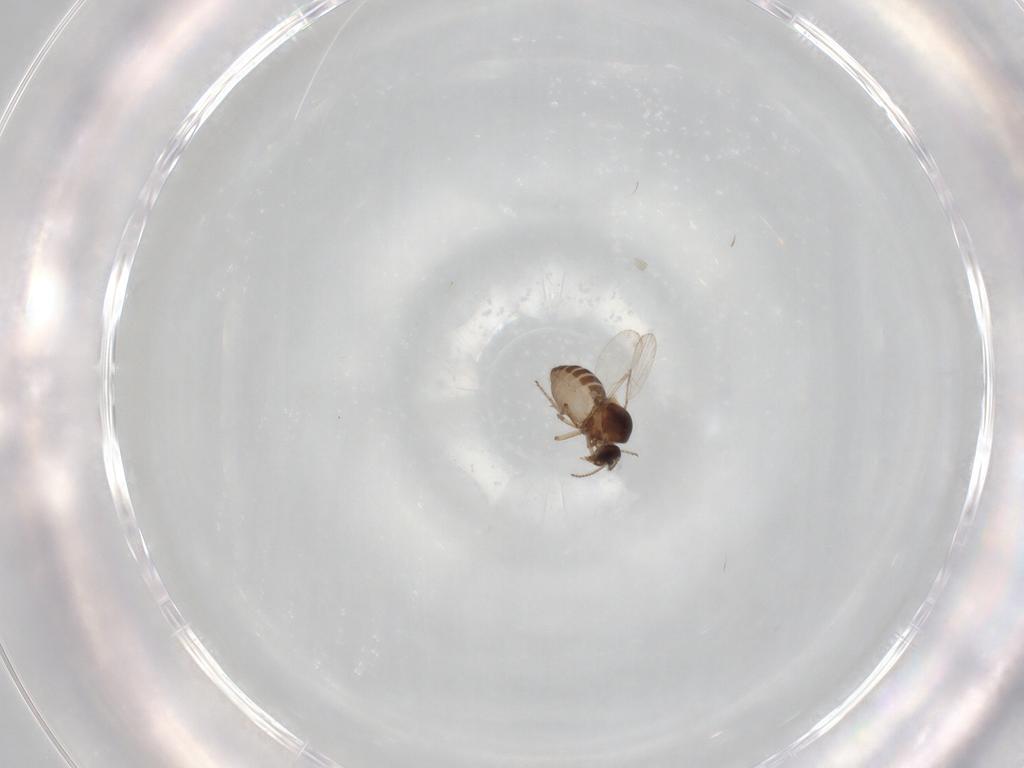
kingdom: Animalia
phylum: Arthropoda
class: Insecta
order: Diptera
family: Ceratopogonidae
